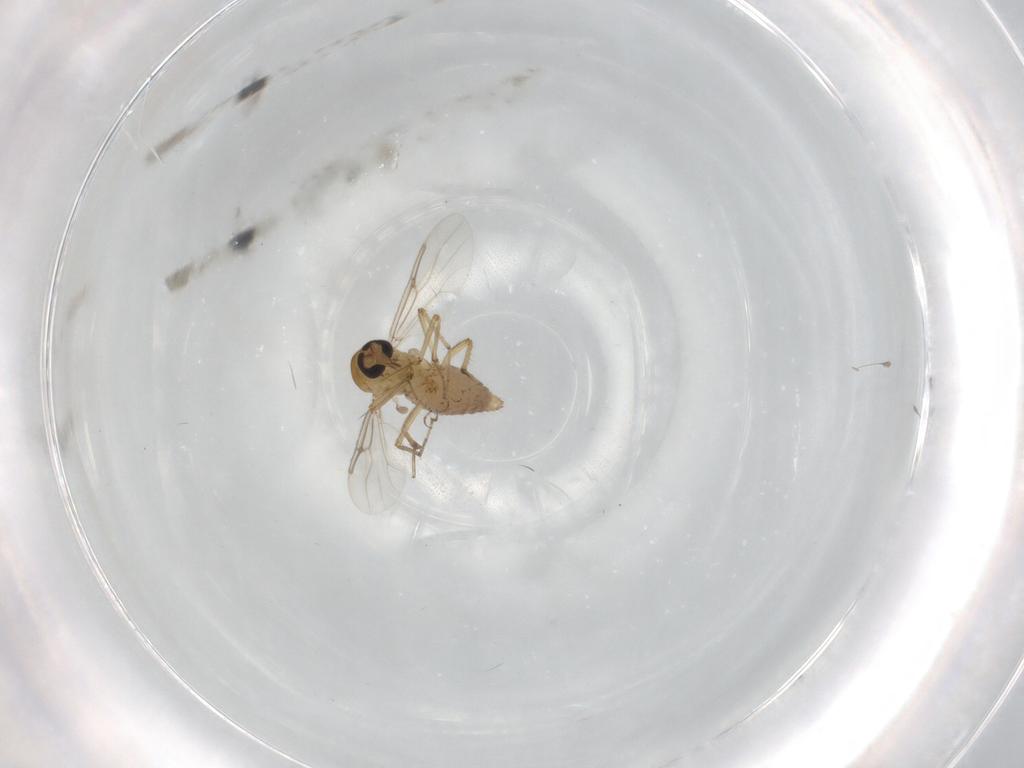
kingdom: Animalia
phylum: Arthropoda
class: Insecta
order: Diptera
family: Ceratopogonidae
